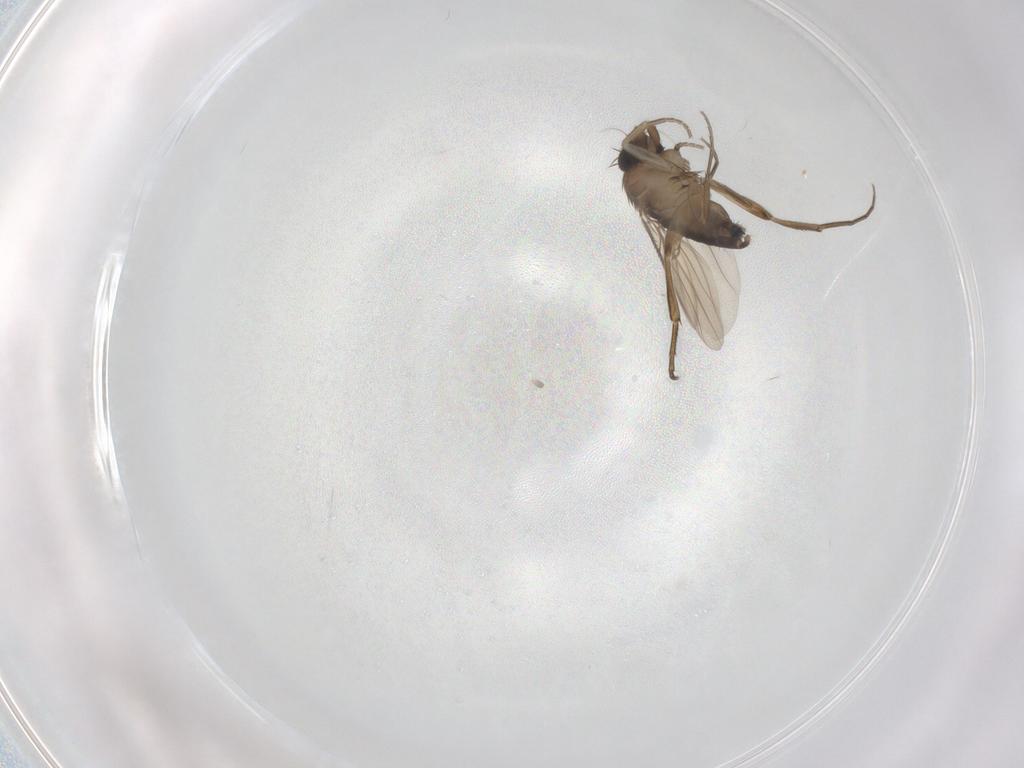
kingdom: Animalia
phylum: Arthropoda
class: Insecta
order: Diptera
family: Phoridae
